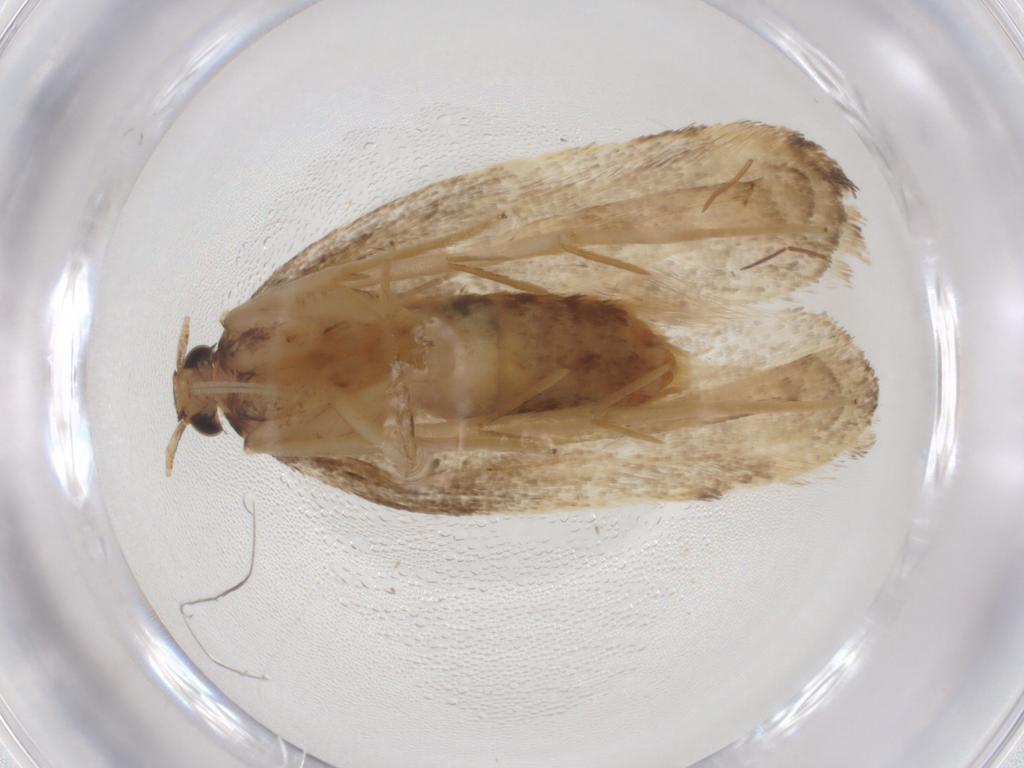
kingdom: Animalia
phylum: Arthropoda
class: Insecta
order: Lepidoptera
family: Lecithoceridae
